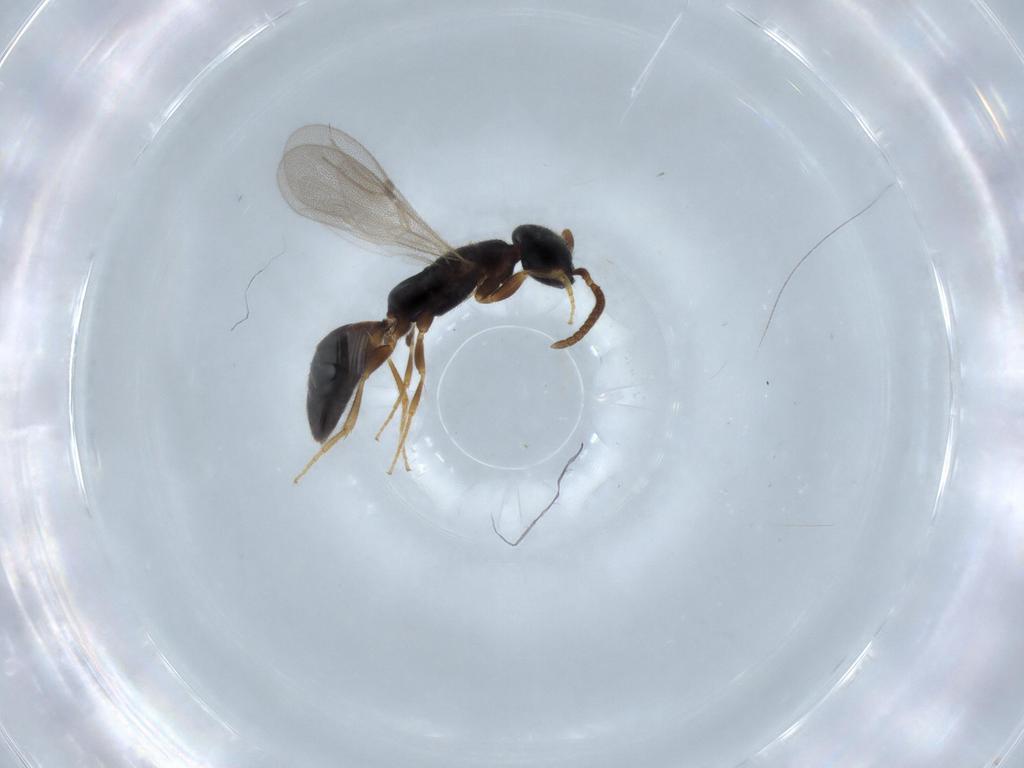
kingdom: Animalia
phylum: Arthropoda
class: Insecta
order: Hymenoptera
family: Bethylidae
